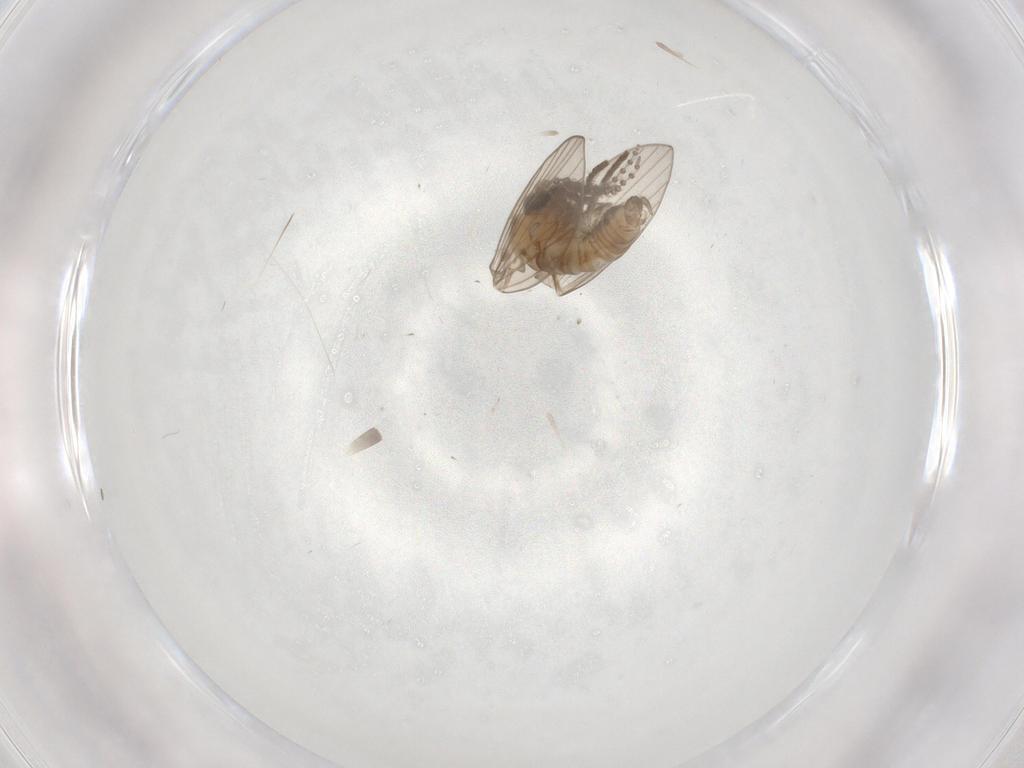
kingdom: Animalia
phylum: Arthropoda
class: Insecta
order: Diptera
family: Psychodidae
